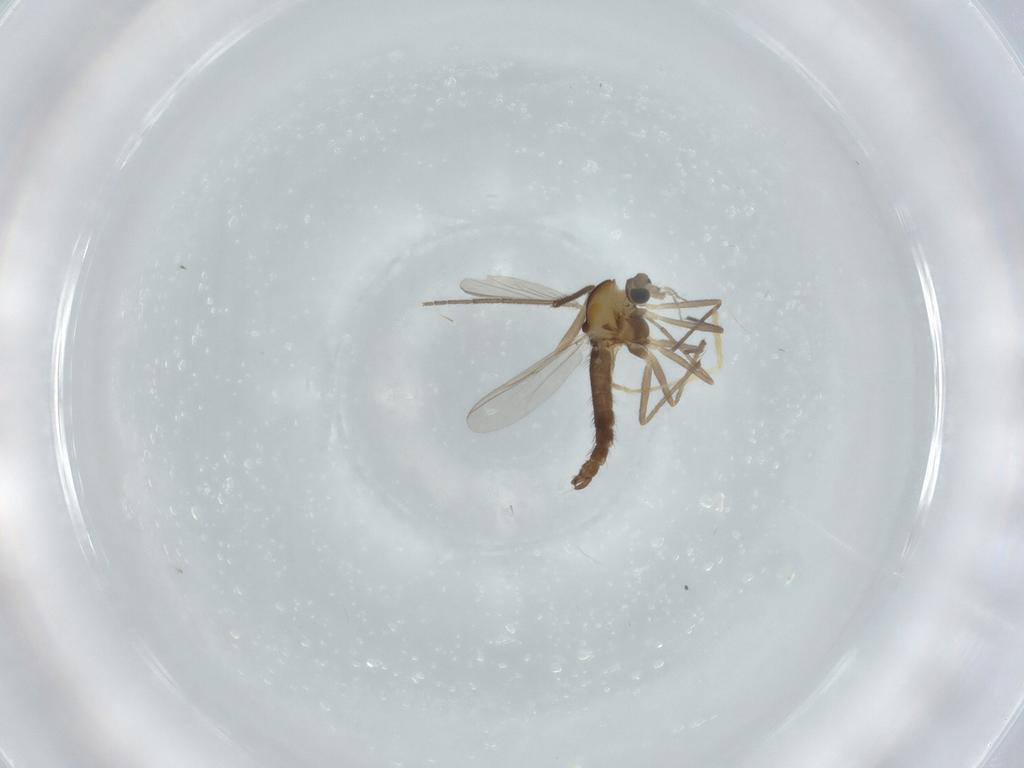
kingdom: Animalia
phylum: Arthropoda
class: Insecta
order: Diptera
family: Chironomidae
